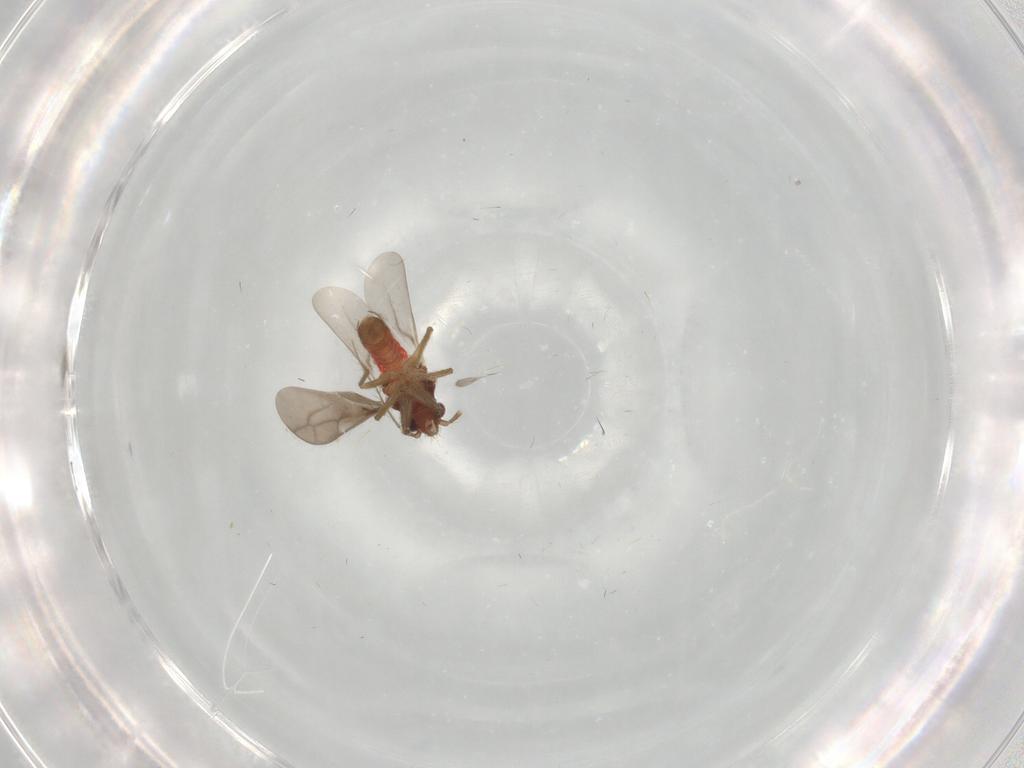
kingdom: Animalia
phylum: Arthropoda
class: Insecta
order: Hemiptera
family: Ceratocombidae
